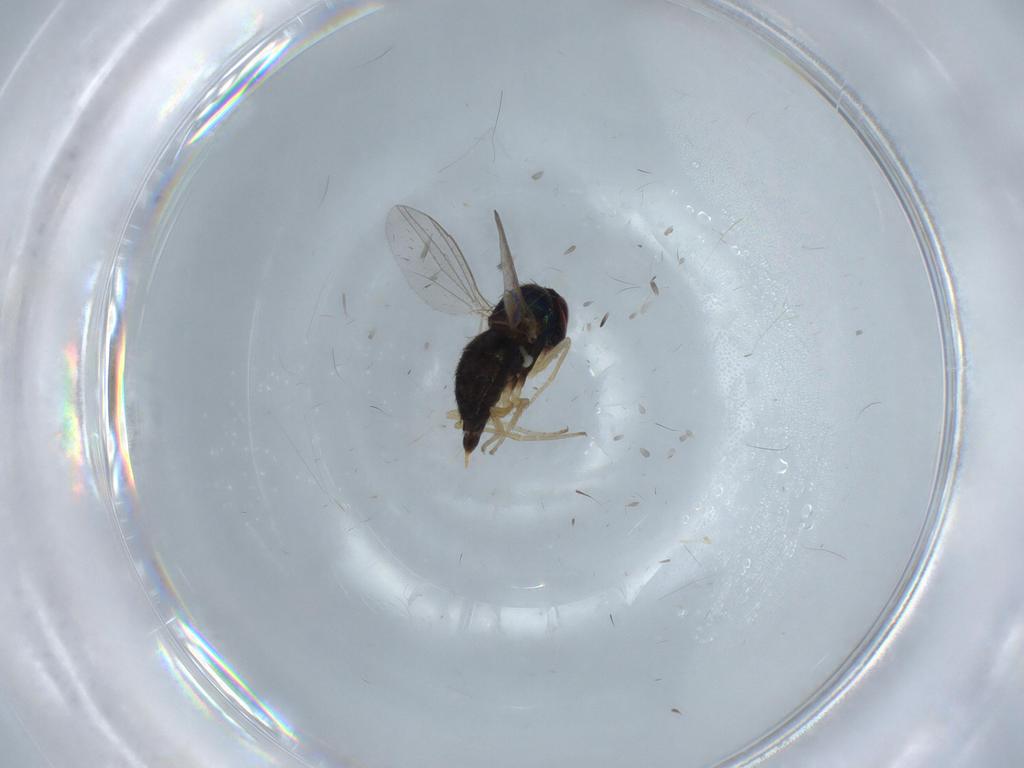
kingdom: Animalia
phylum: Arthropoda
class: Insecta
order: Diptera
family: Dolichopodidae
